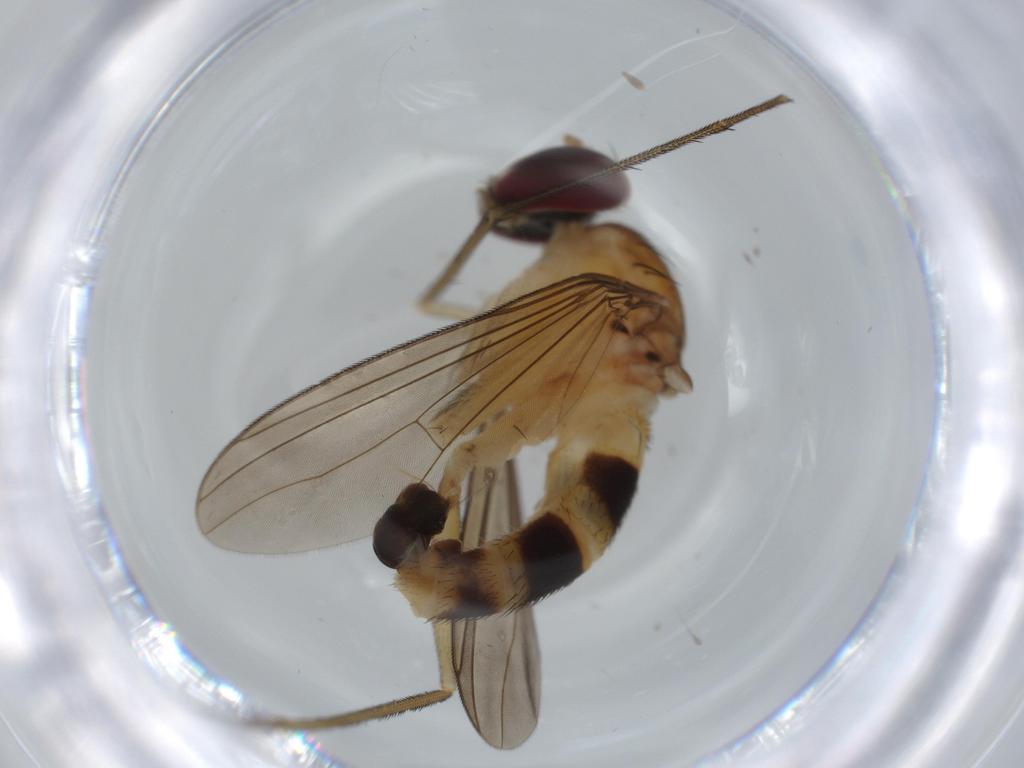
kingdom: Animalia
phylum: Arthropoda
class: Insecta
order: Diptera
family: Dolichopodidae
